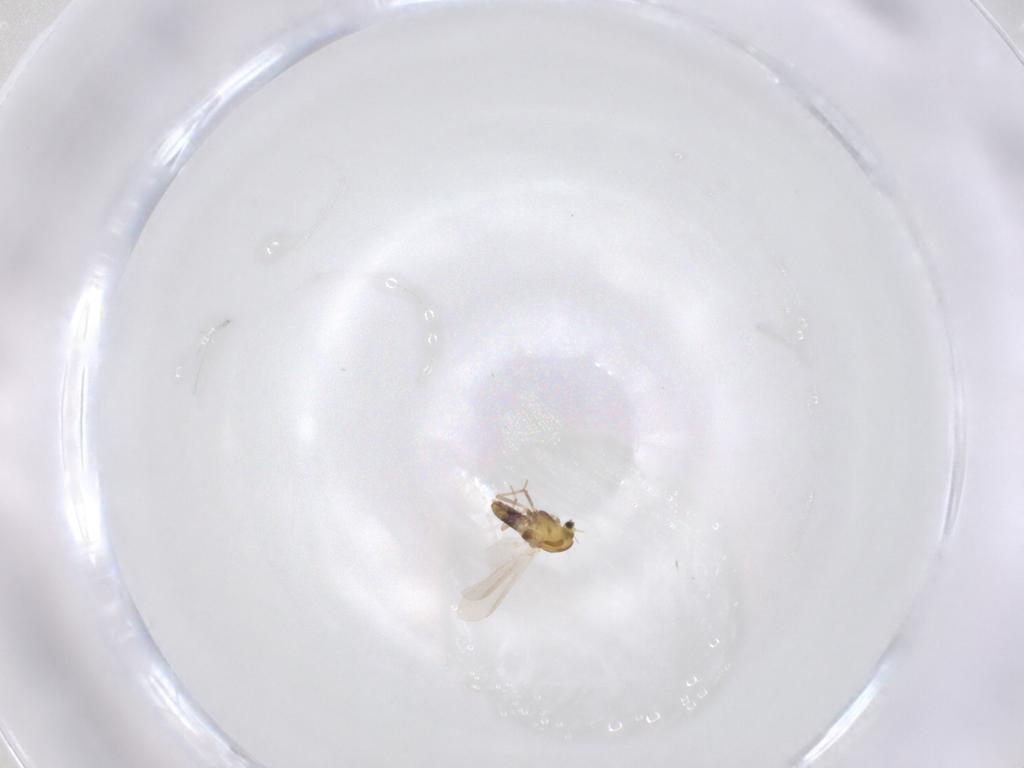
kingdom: Animalia
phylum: Arthropoda
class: Insecta
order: Diptera
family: Chironomidae
